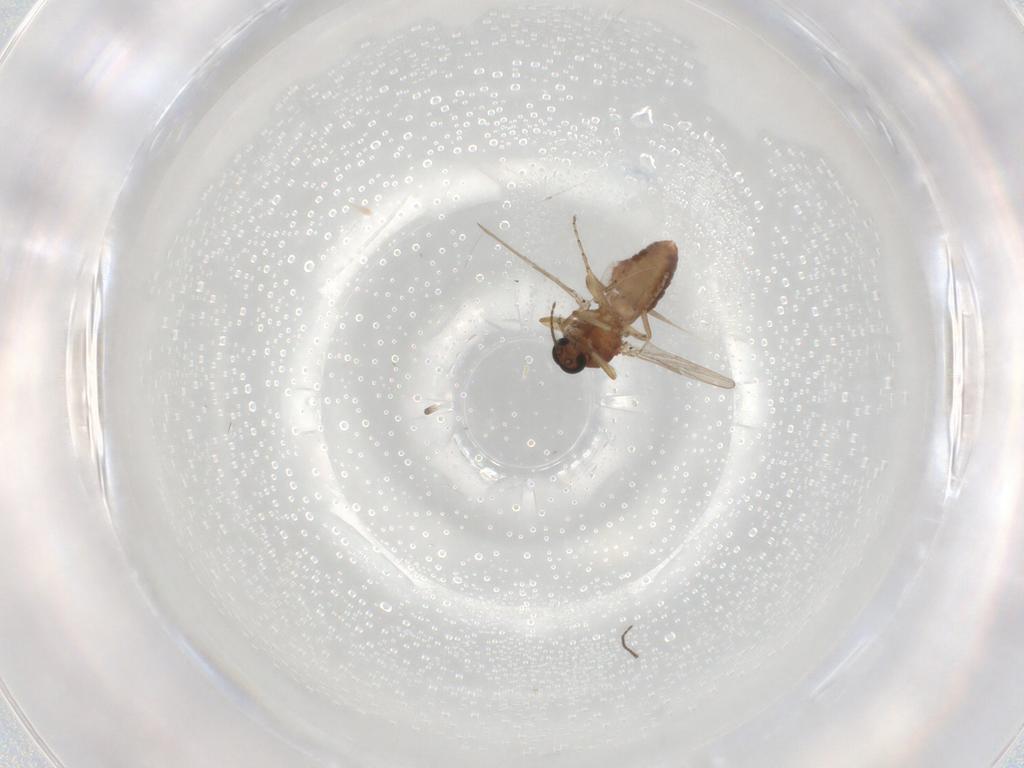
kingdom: Animalia
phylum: Arthropoda
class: Insecta
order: Diptera
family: Ceratopogonidae
